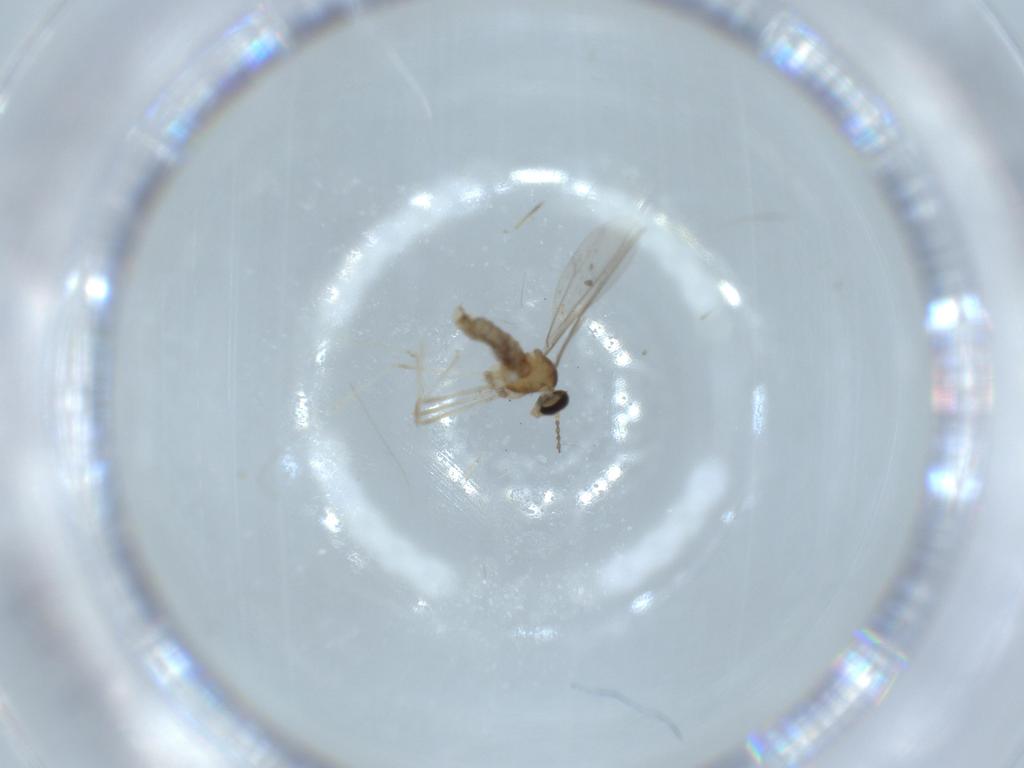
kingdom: Animalia
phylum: Arthropoda
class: Insecta
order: Diptera
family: Cecidomyiidae
